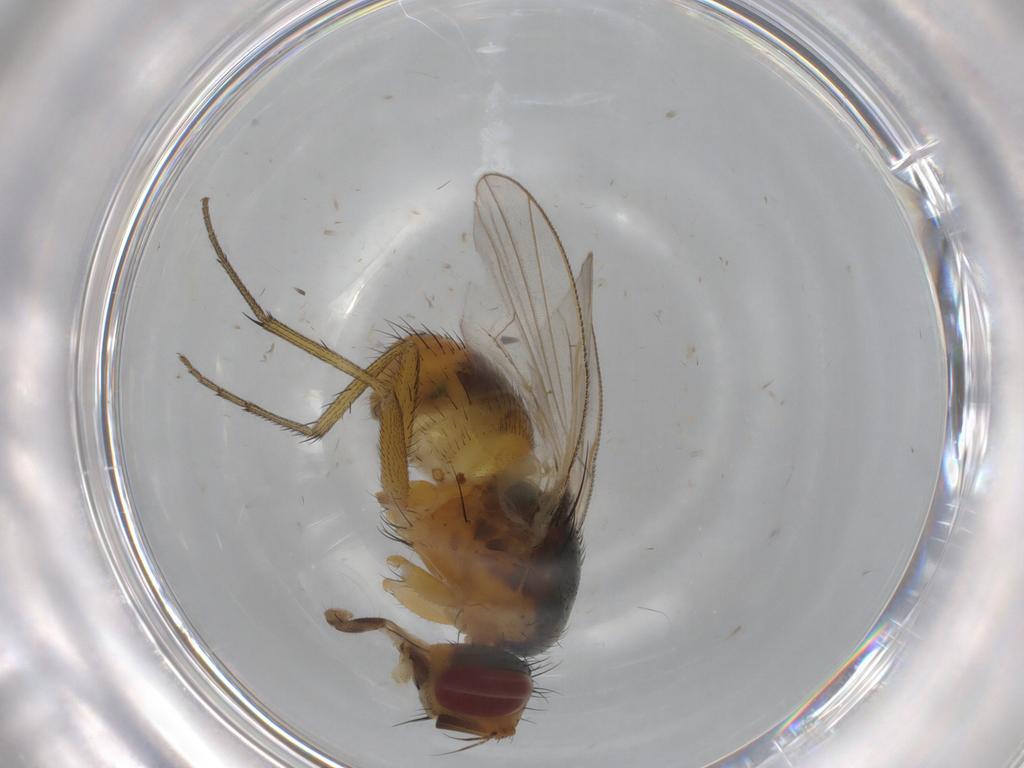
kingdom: Animalia
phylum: Arthropoda
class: Insecta
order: Diptera
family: Muscidae
